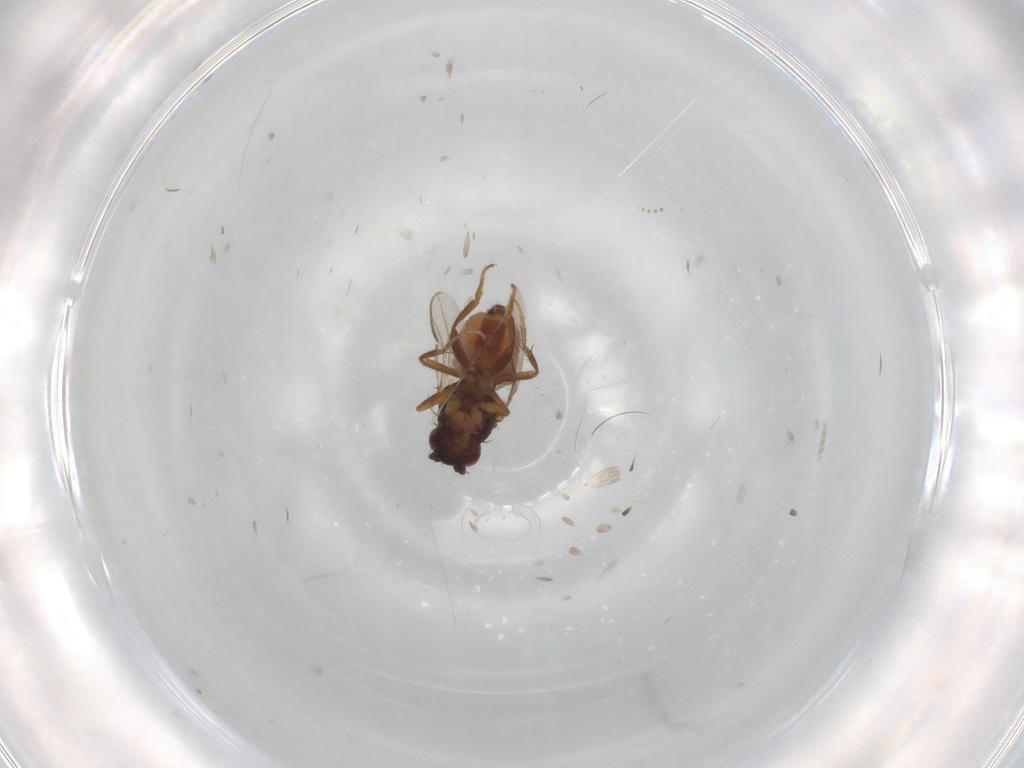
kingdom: Animalia
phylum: Arthropoda
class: Insecta
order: Diptera
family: Sphaeroceridae
